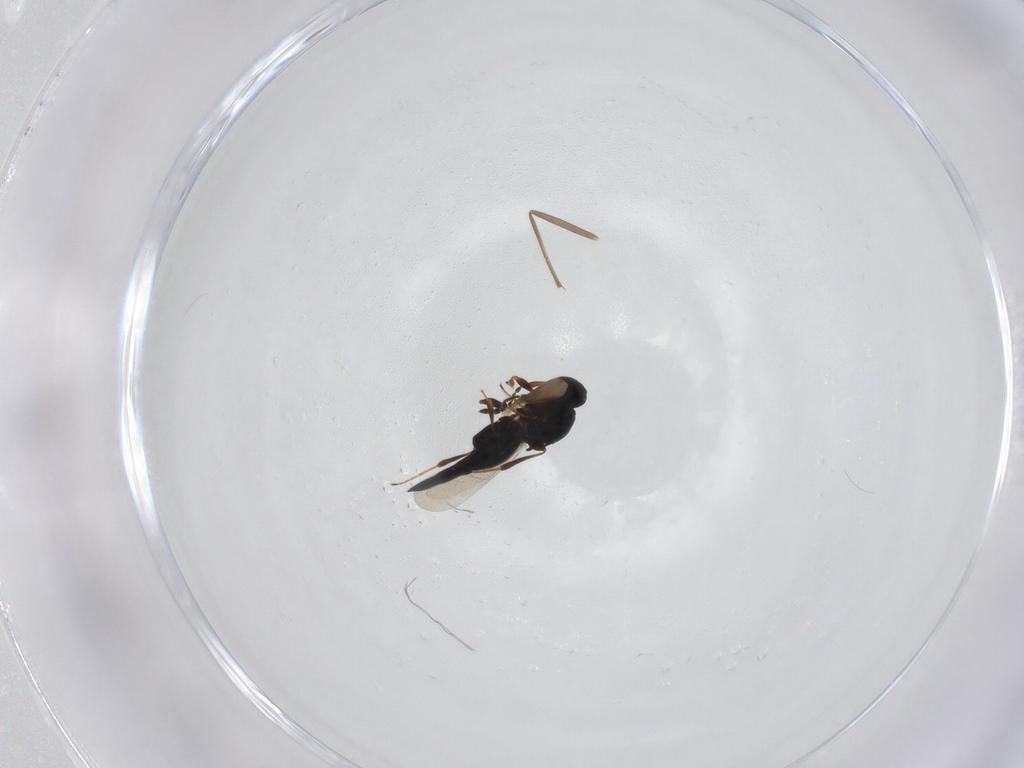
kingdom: Animalia
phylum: Arthropoda
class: Insecta
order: Hymenoptera
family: Platygastridae
